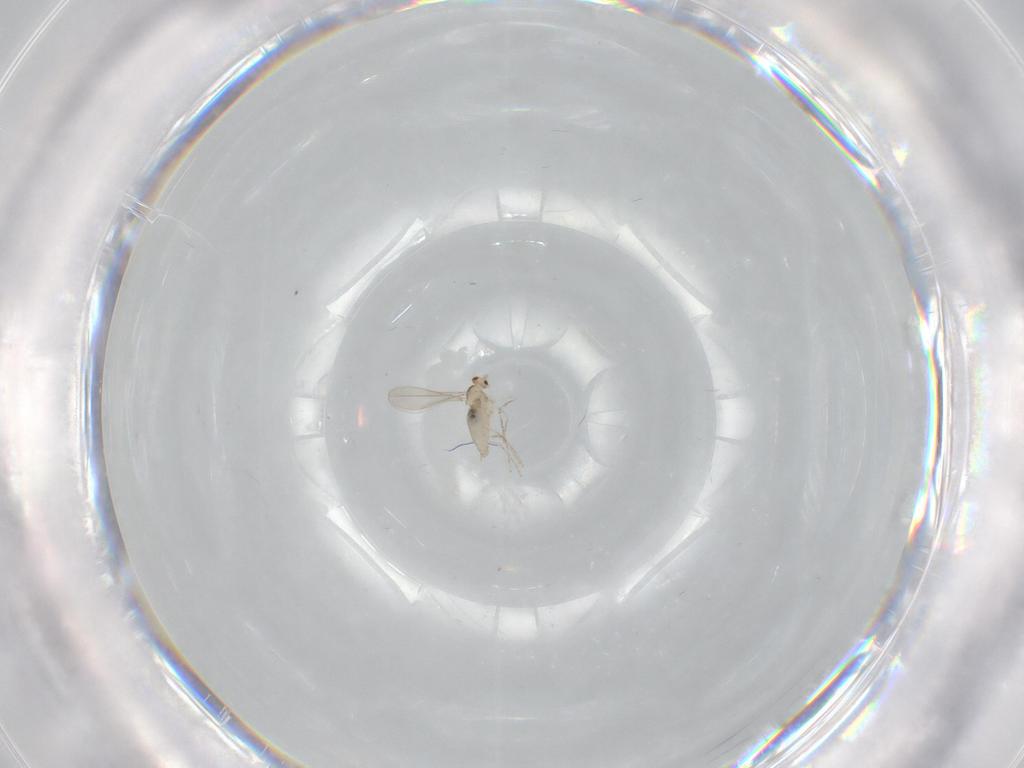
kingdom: Animalia
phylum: Arthropoda
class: Insecta
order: Diptera
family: Cecidomyiidae
